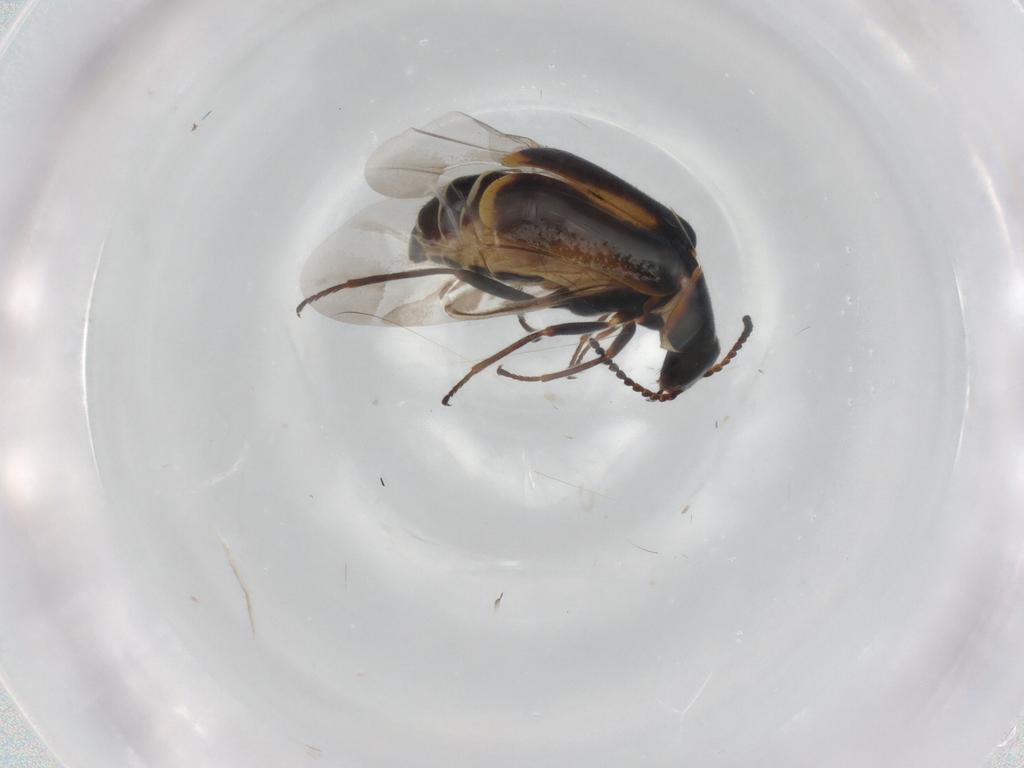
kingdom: Animalia
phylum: Arthropoda
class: Insecta
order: Coleoptera
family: Melyridae
